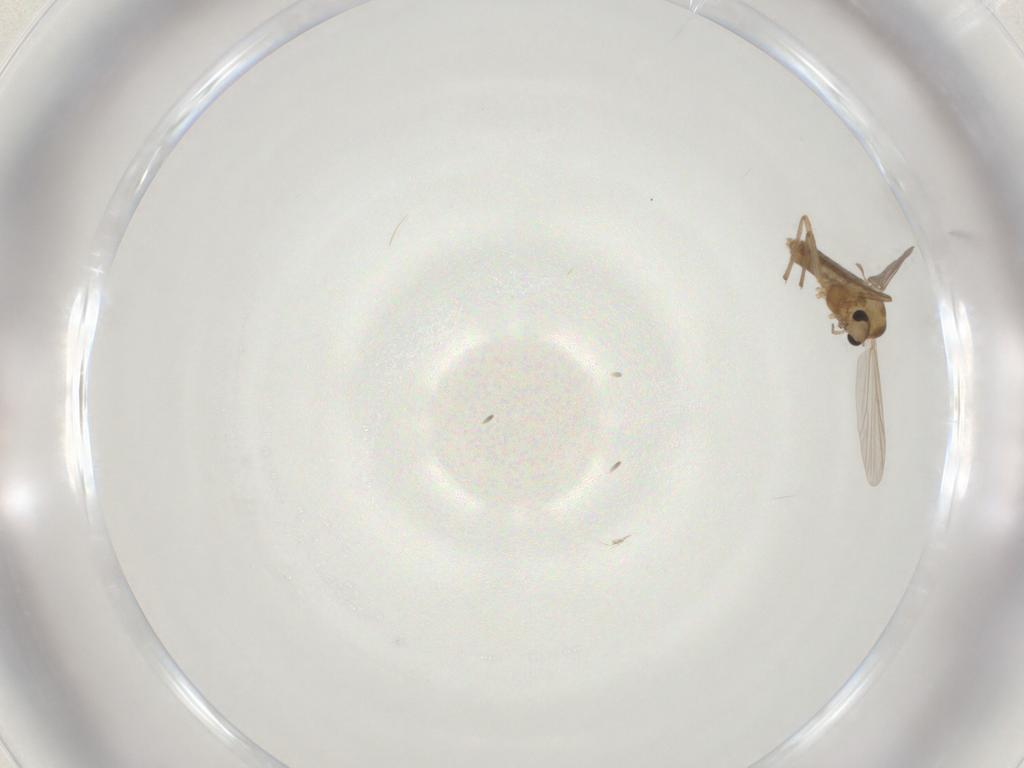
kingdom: Animalia
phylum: Arthropoda
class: Insecta
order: Diptera
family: Chironomidae
